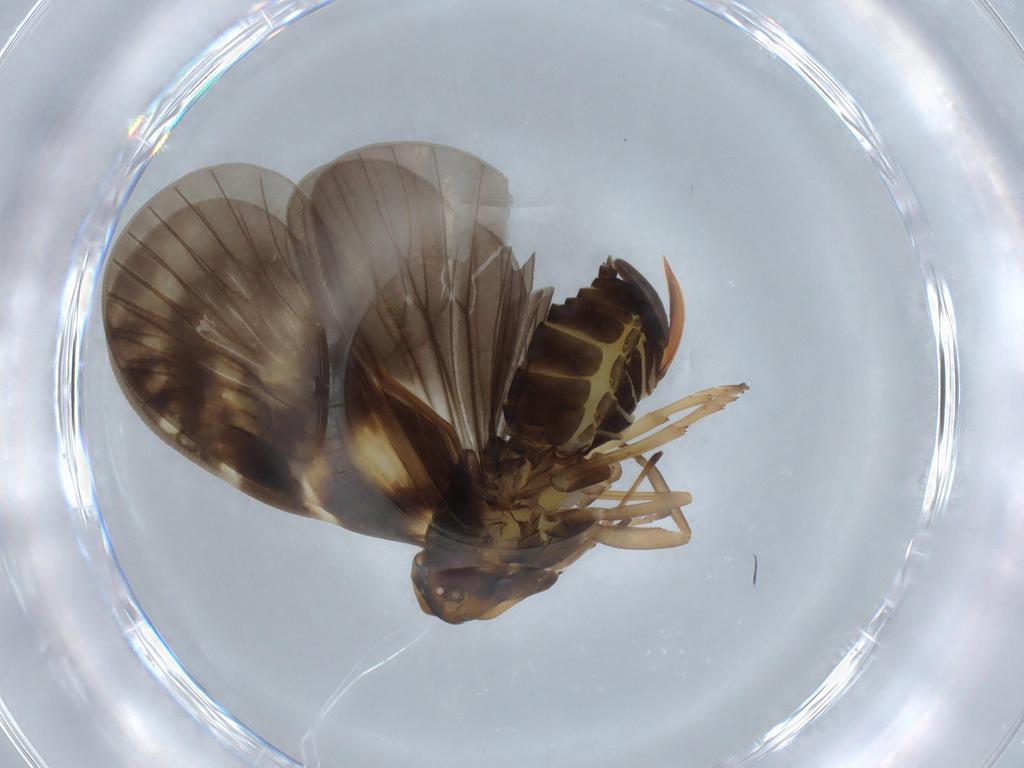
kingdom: Animalia
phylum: Arthropoda
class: Insecta
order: Hemiptera
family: Cixiidae
